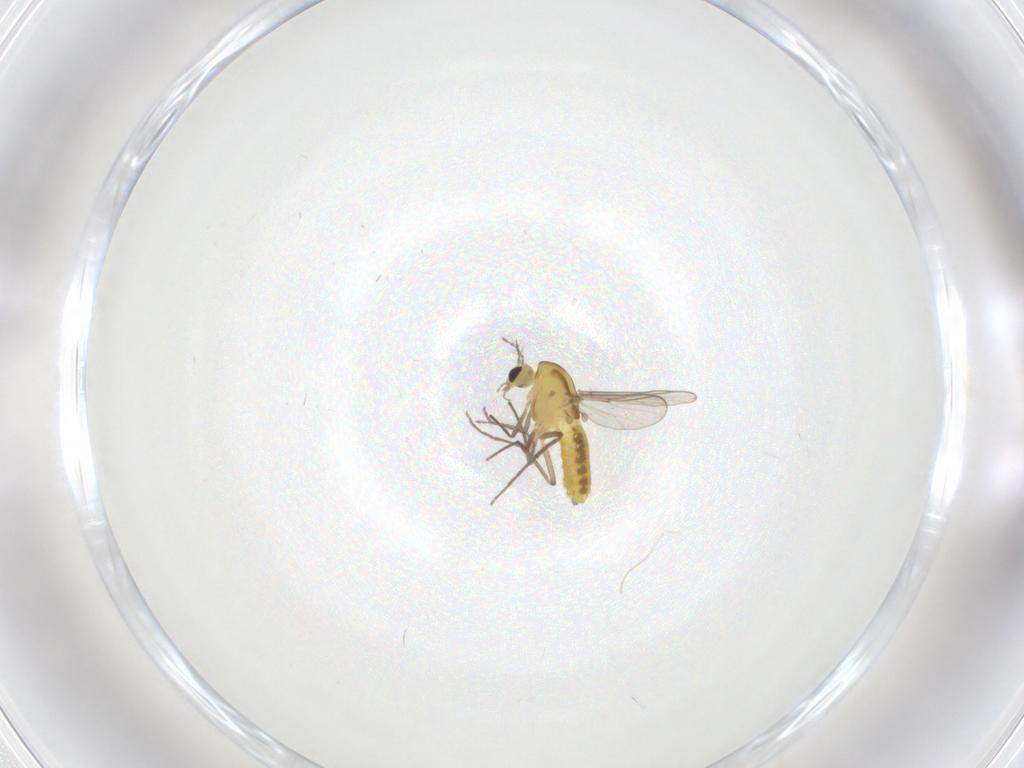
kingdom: Animalia
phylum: Arthropoda
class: Insecta
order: Diptera
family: Chironomidae
